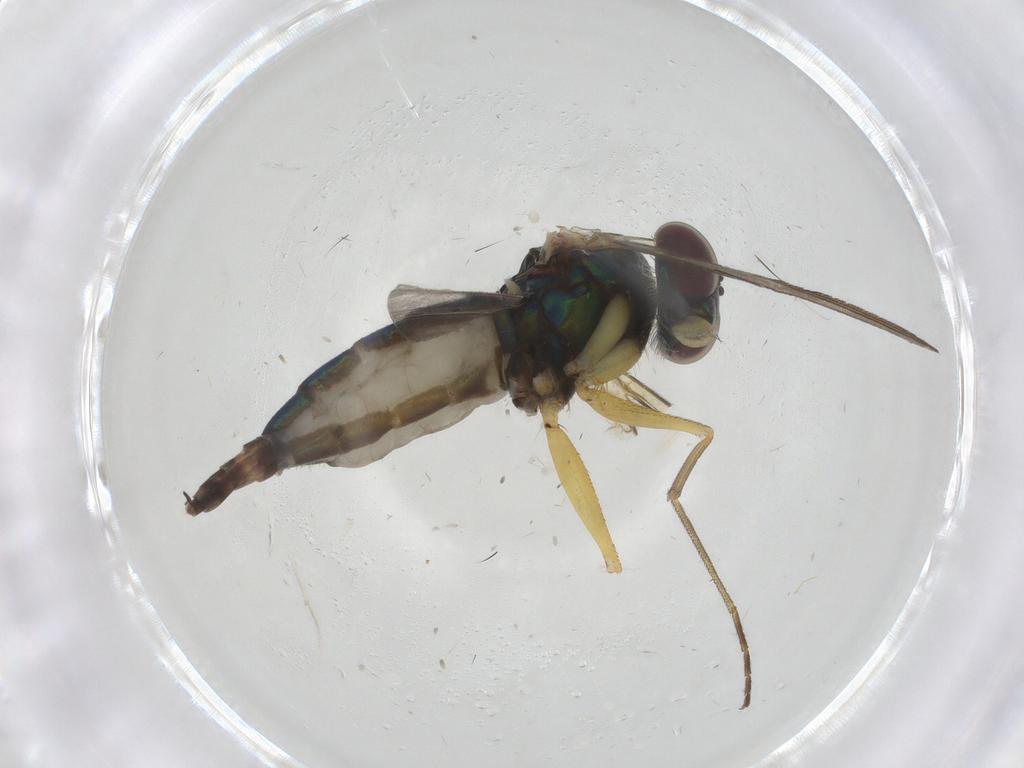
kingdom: Animalia
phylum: Arthropoda
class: Insecta
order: Diptera
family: Dolichopodidae
